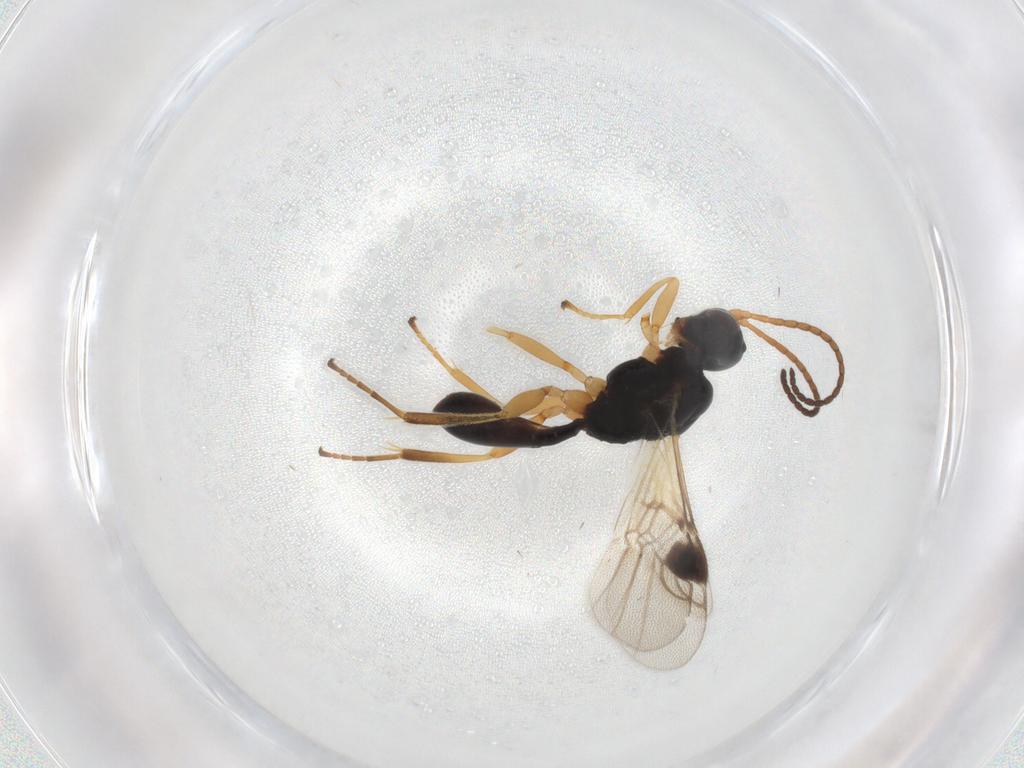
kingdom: Animalia
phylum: Arthropoda
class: Insecta
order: Hymenoptera
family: Braconidae
